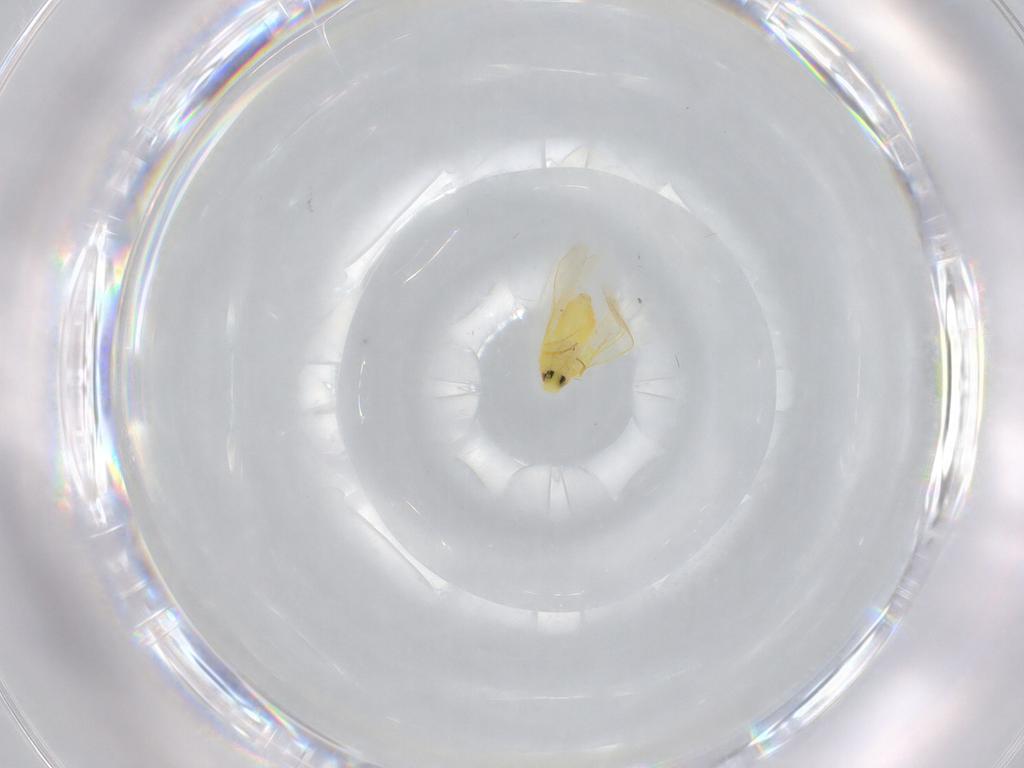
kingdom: Animalia
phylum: Arthropoda
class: Insecta
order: Hemiptera
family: Aleyrodidae
